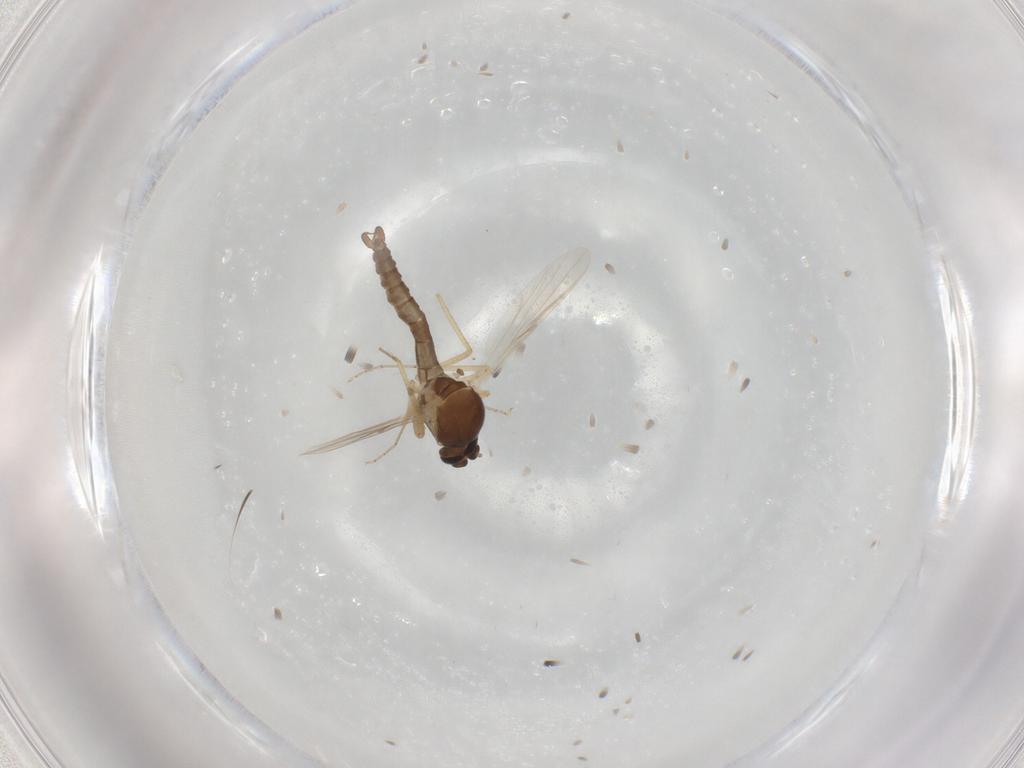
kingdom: Animalia
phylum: Arthropoda
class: Insecta
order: Diptera
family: Ceratopogonidae
